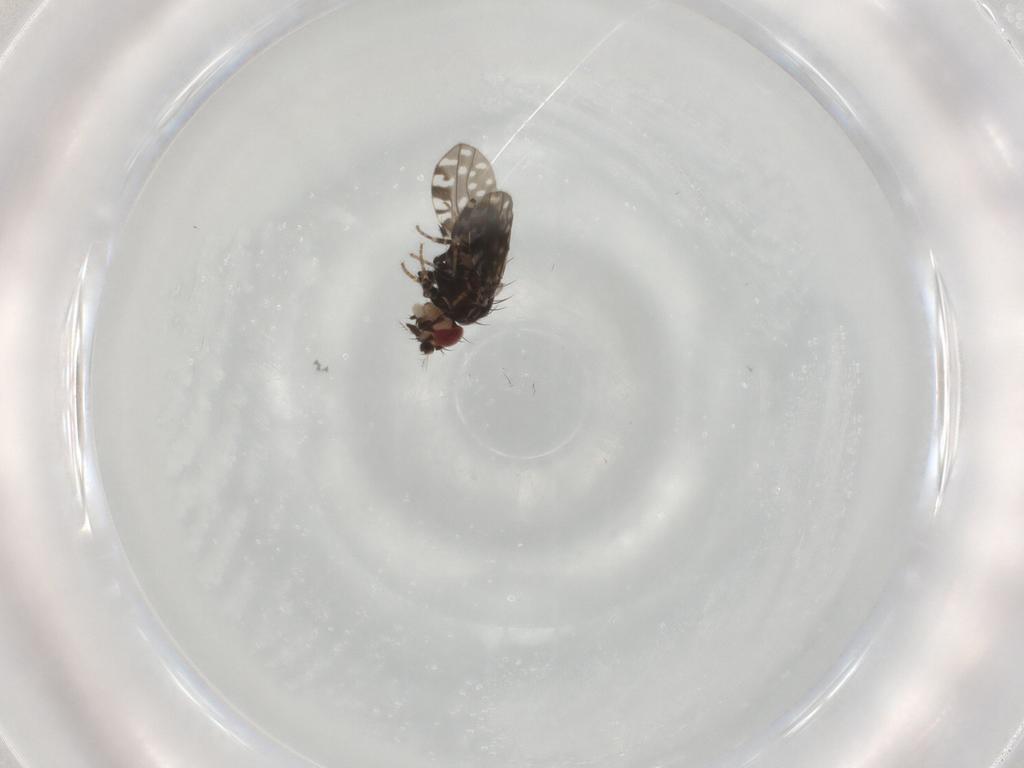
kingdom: Animalia
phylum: Arthropoda
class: Insecta
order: Diptera
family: Drosophilidae
